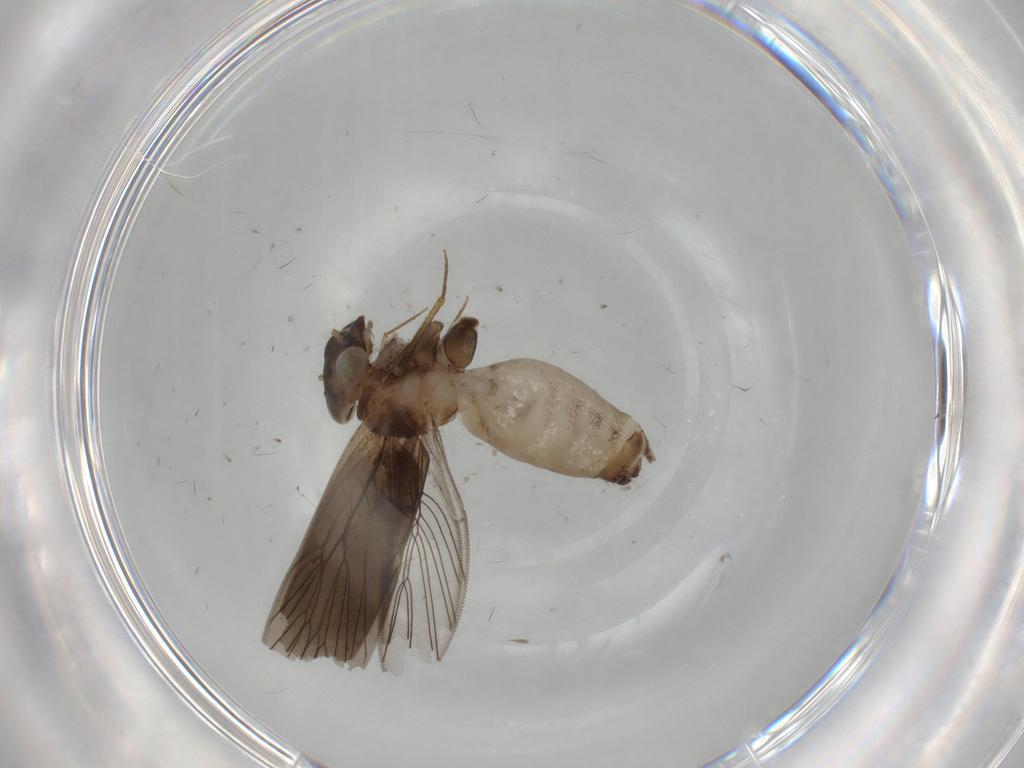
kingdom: Animalia
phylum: Arthropoda
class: Insecta
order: Psocodea
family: Lepidopsocidae
